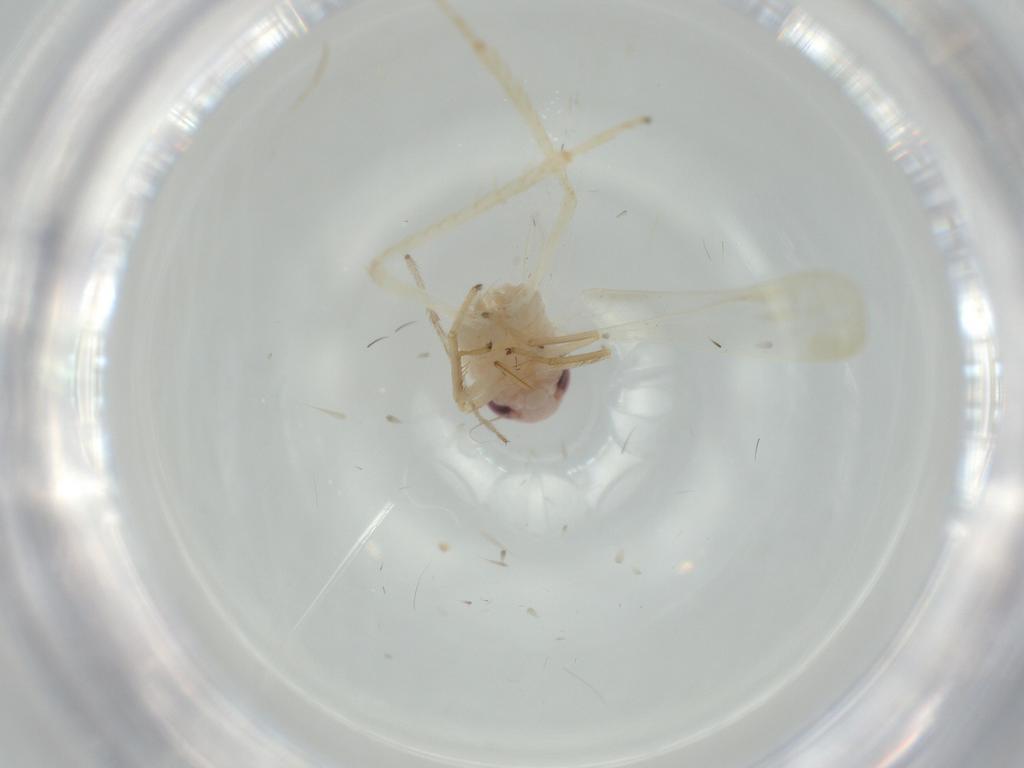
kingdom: Animalia
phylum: Arthropoda
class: Insecta
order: Hemiptera
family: Cicadellidae
